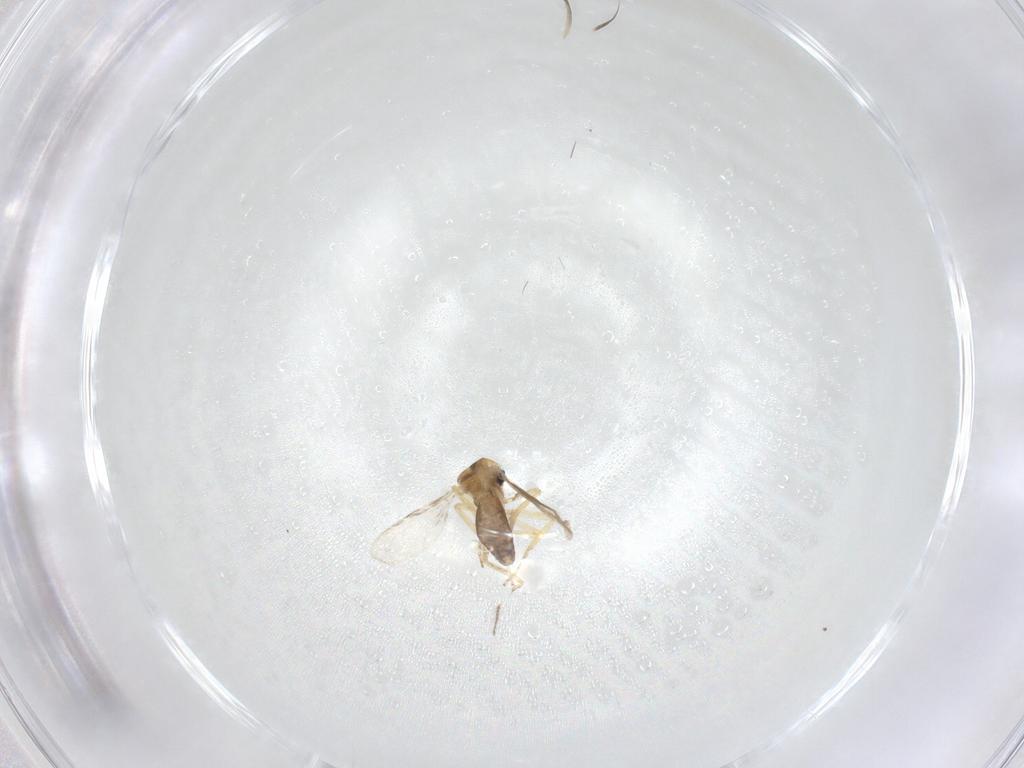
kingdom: Animalia
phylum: Arthropoda
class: Insecta
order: Diptera
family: Ceratopogonidae
